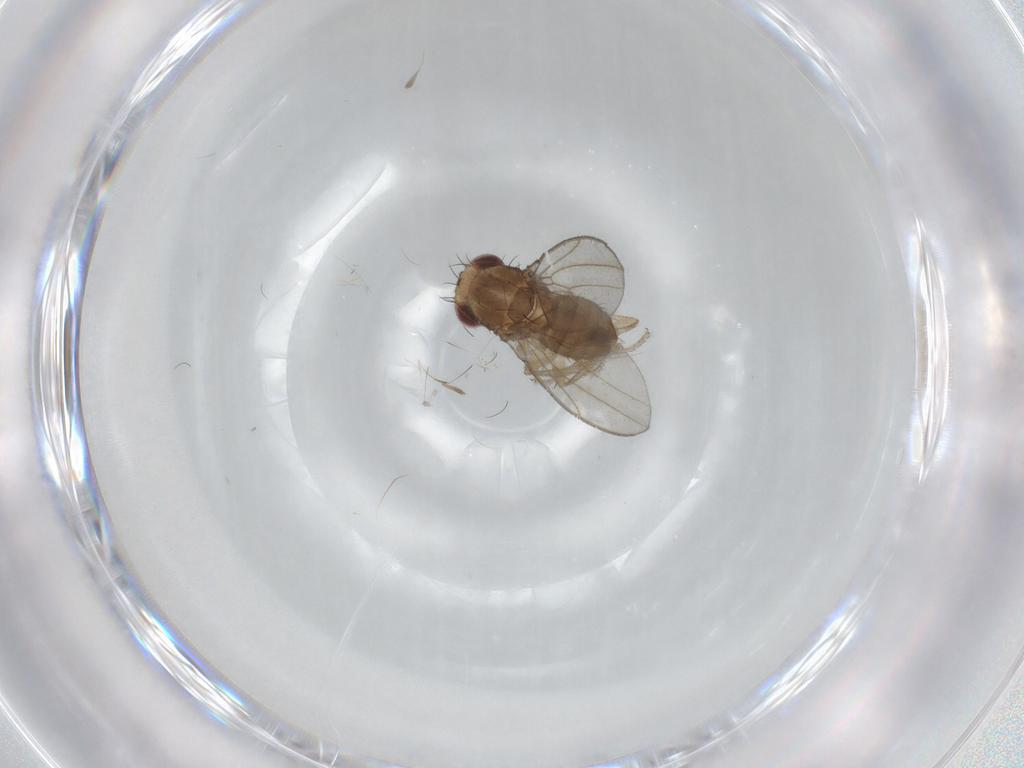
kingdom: Animalia
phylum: Arthropoda
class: Insecta
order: Diptera
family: Drosophilidae
